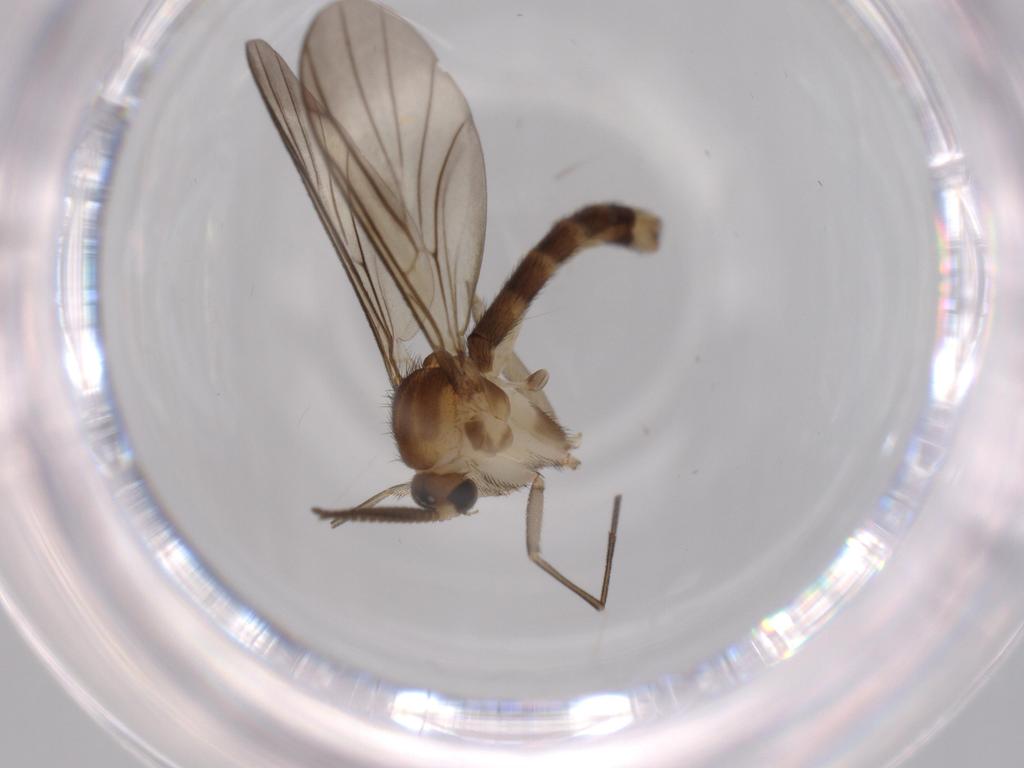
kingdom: Animalia
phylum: Arthropoda
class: Insecta
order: Diptera
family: Mycetophilidae
